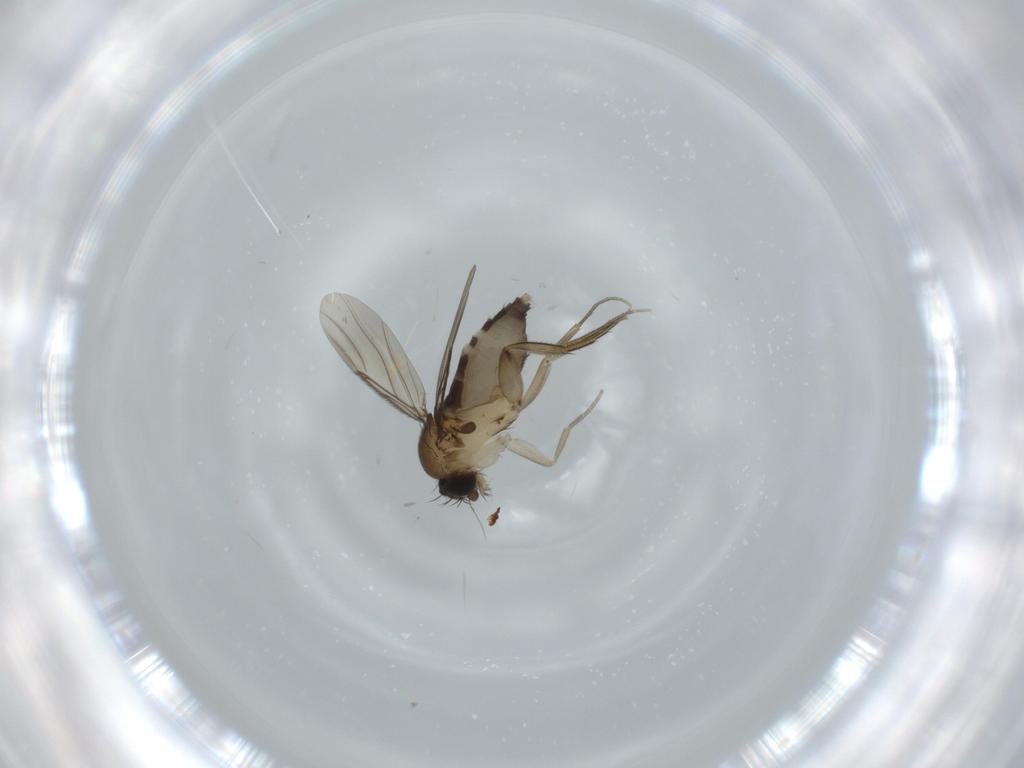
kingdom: Animalia
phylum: Arthropoda
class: Insecta
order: Diptera
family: Phoridae
